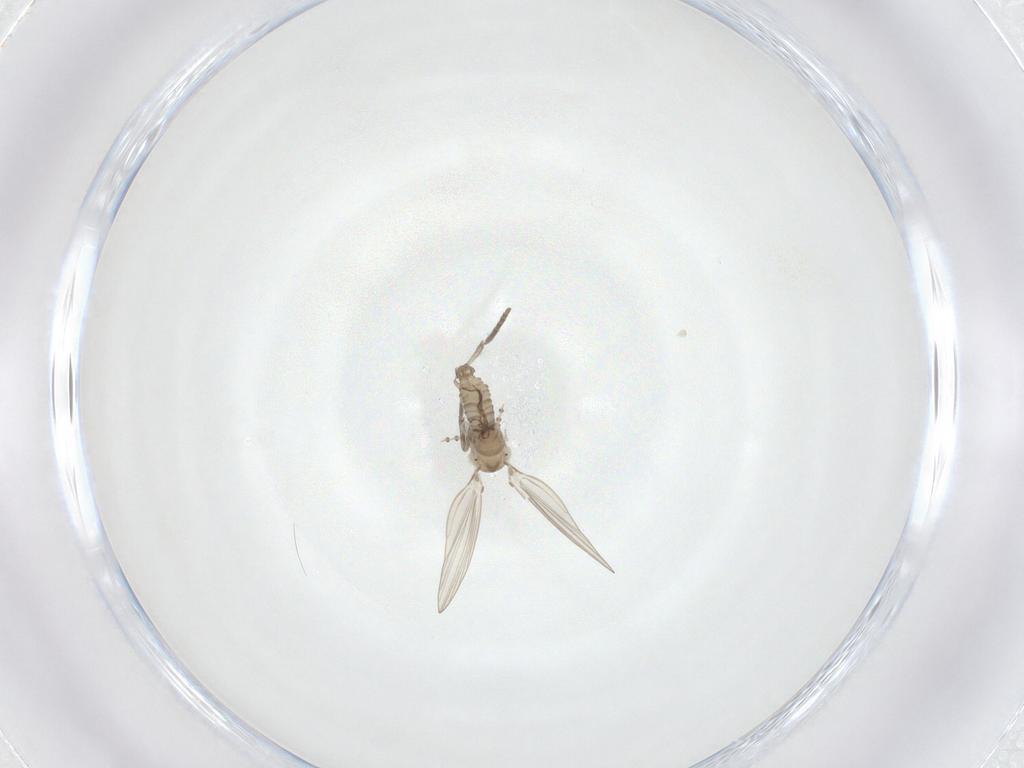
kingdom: Animalia
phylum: Arthropoda
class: Insecta
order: Diptera
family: Psychodidae
